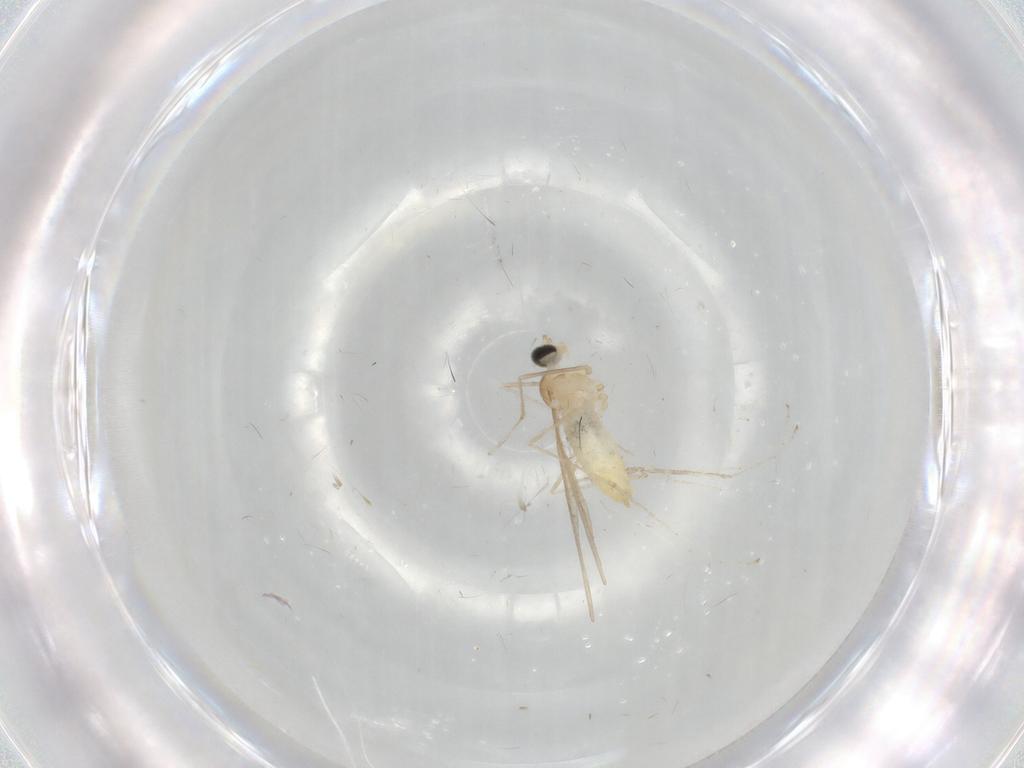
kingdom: Animalia
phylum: Arthropoda
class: Insecta
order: Diptera
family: Cecidomyiidae
